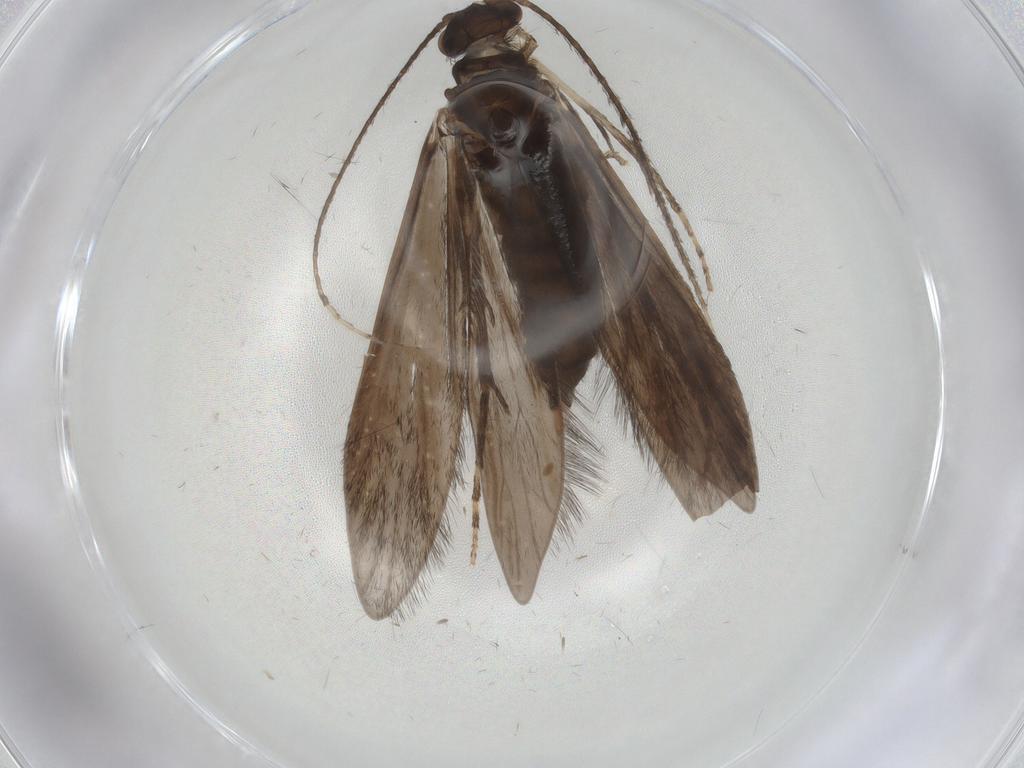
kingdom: Animalia
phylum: Arthropoda
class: Insecta
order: Trichoptera
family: Xiphocentronidae
